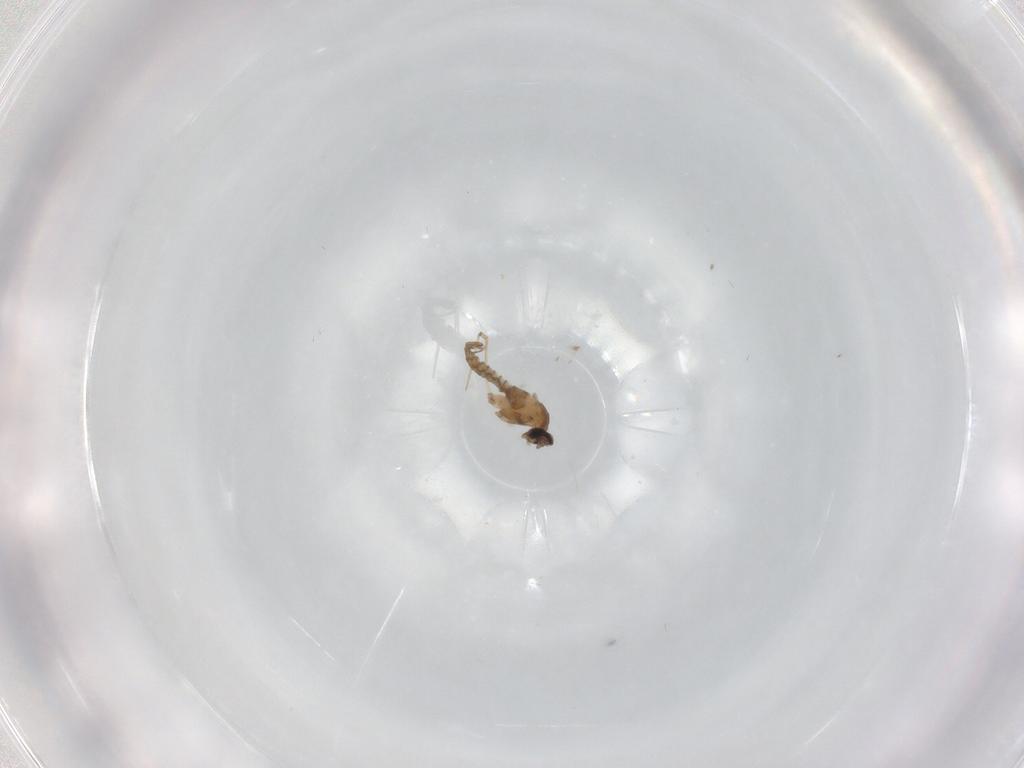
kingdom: Animalia
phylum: Arthropoda
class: Insecta
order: Diptera
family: Cecidomyiidae
